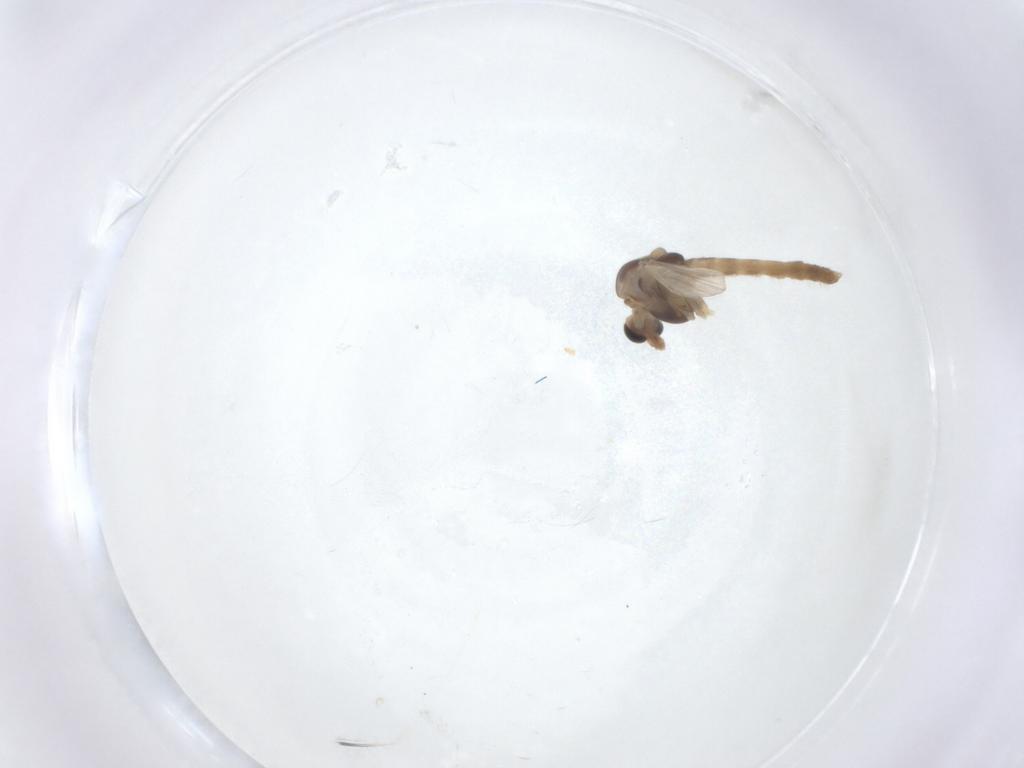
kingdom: Animalia
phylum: Arthropoda
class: Insecta
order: Diptera
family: Chironomidae
